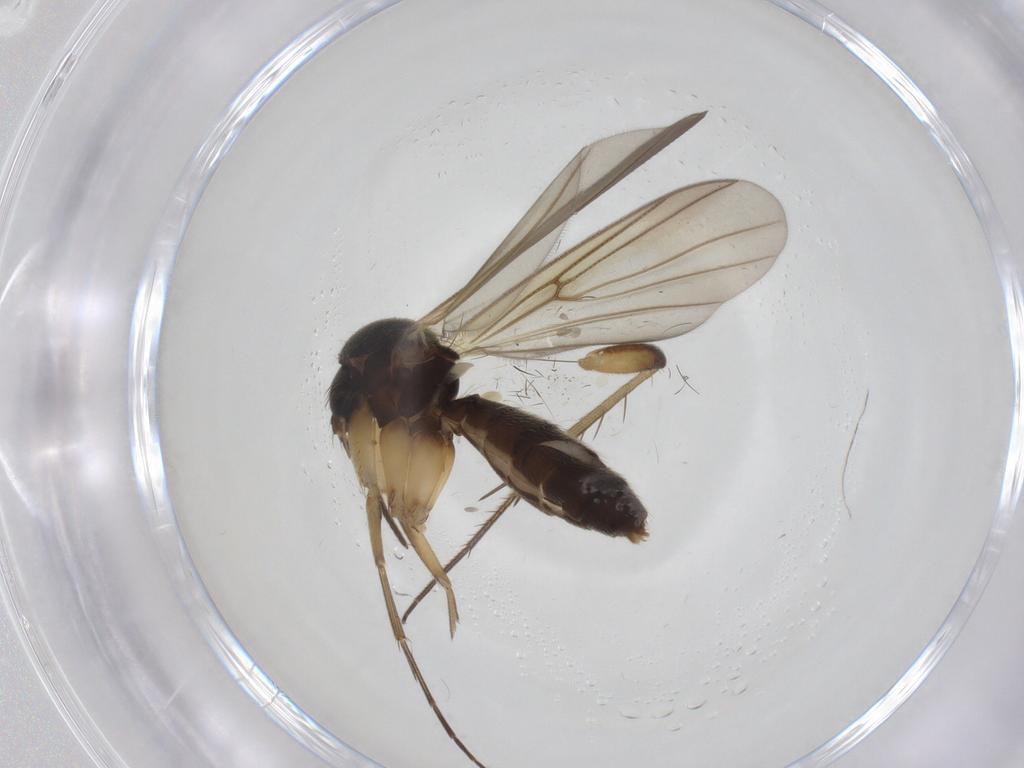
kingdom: Animalia
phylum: Arthropoda
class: Insecta
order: Diptera
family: Mycetophilidae
